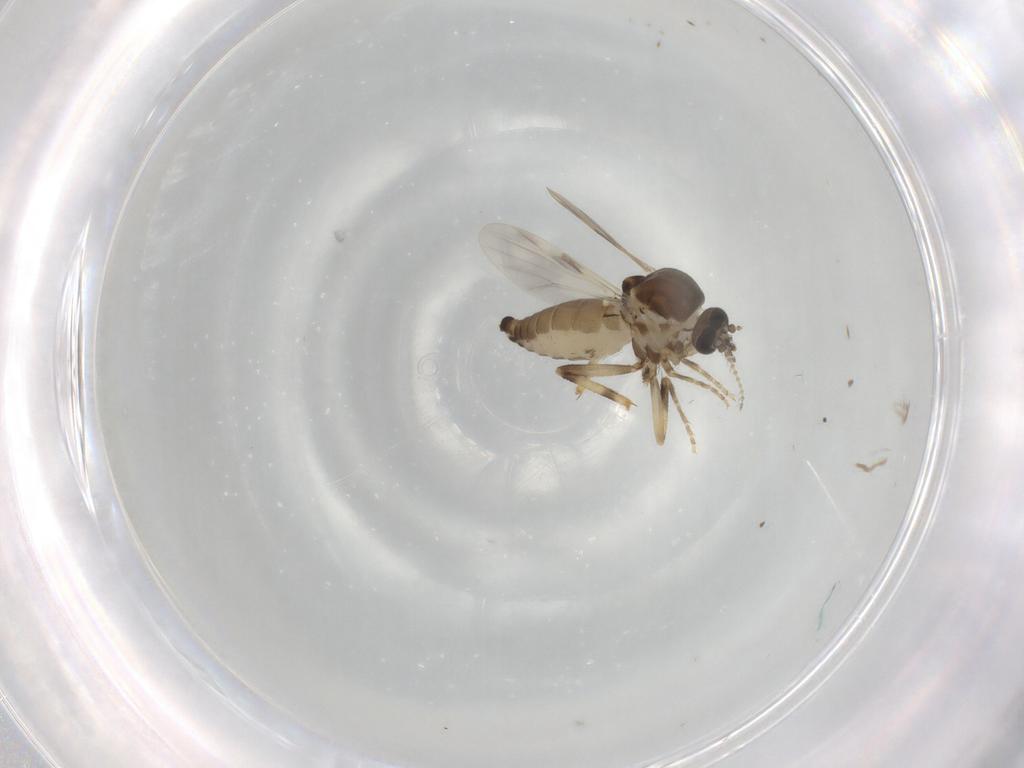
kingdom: Animalia
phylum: Arthropoda
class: Insecta
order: Diptera
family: Ceratopogonidae
